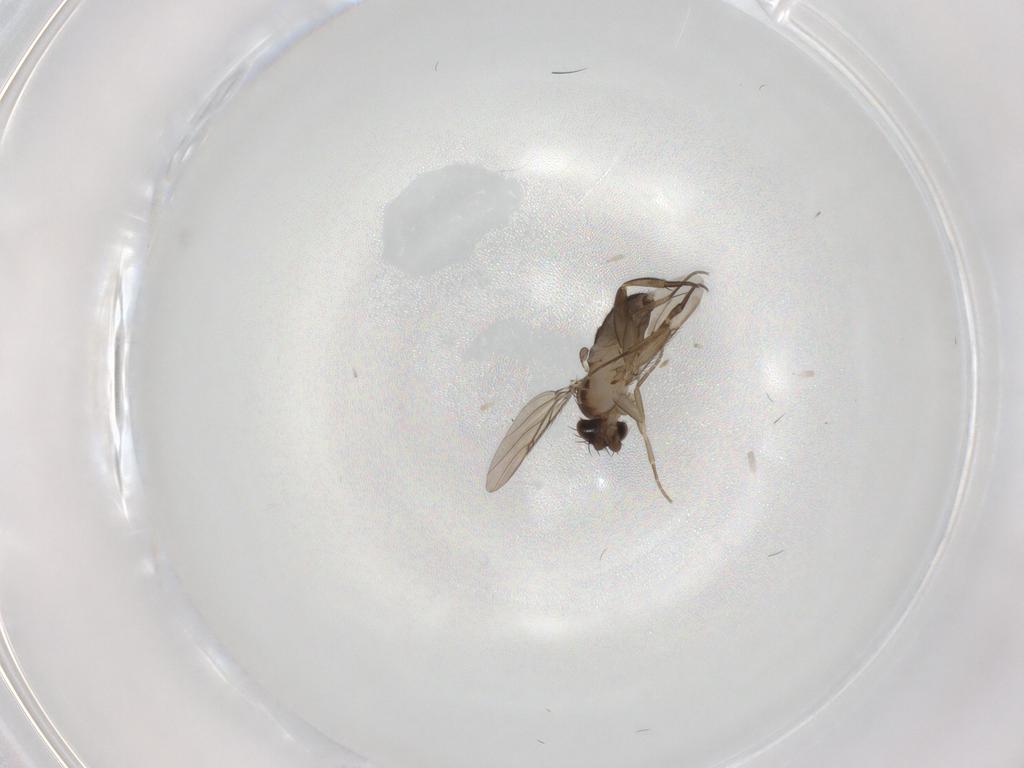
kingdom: Animalia
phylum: Arthropoda
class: Insecta
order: Diptera
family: Phoridae
